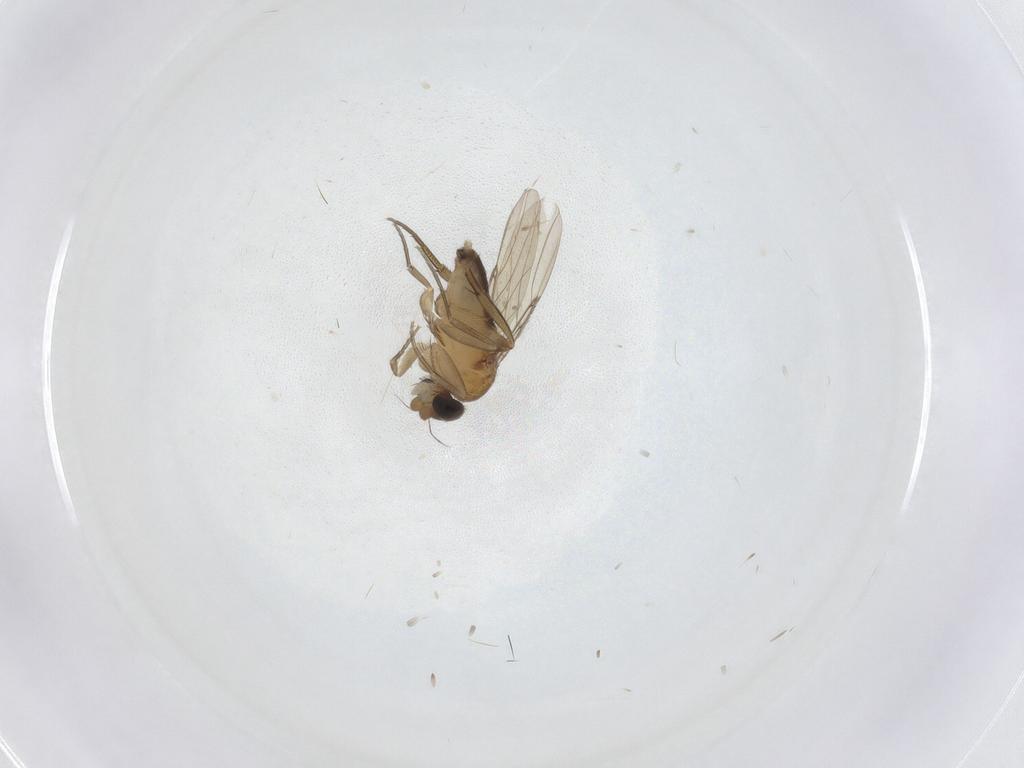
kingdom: Animalia
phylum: Arthropoda
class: Insecta
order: Diptera
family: Phoridae
